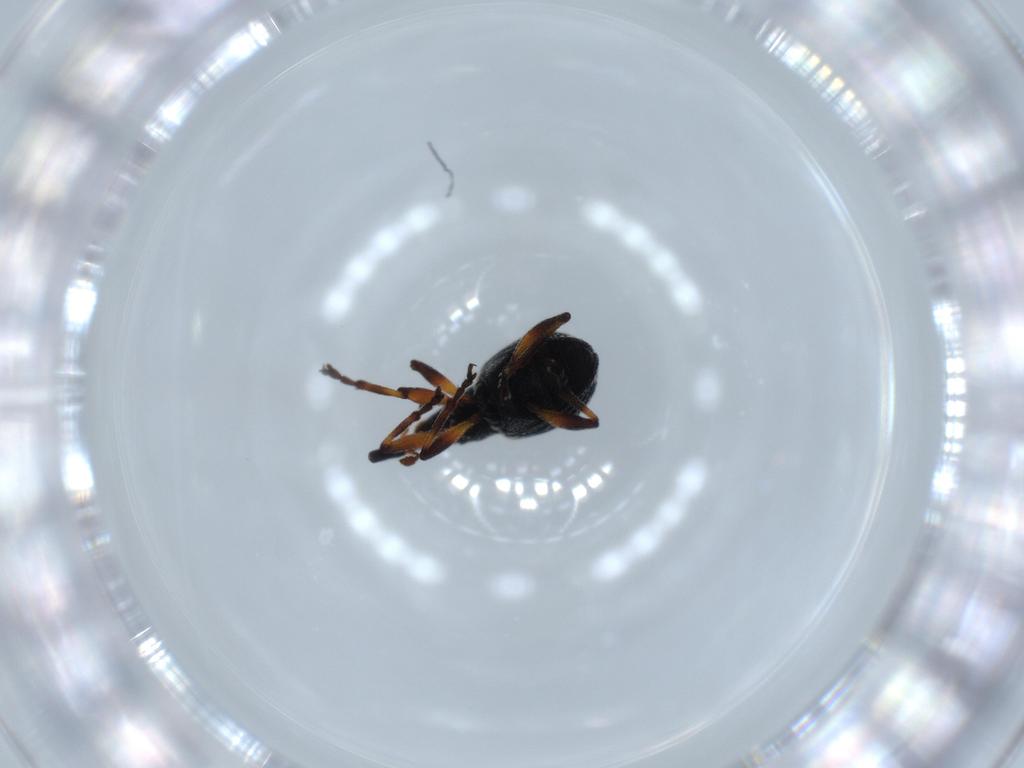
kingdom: Animalia
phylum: Arthropoda
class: Insecta
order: Coleoptera
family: Brentidae
